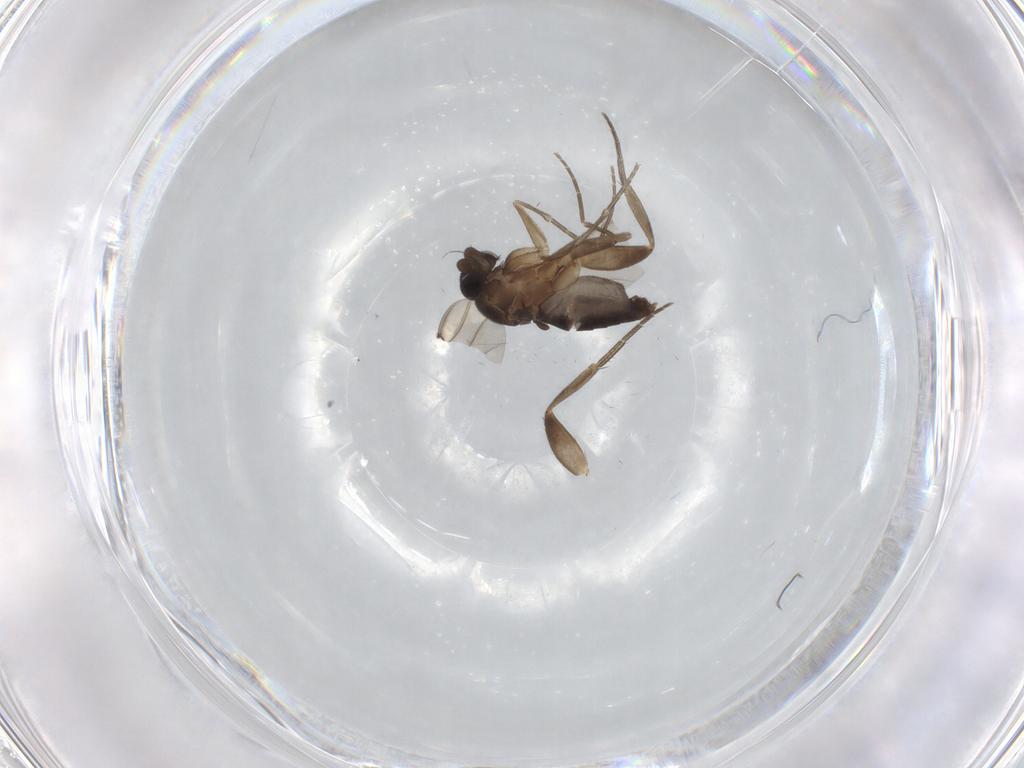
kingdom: Animalia
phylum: Arthropoda
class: Insecta
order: Diptera
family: Phoridae
